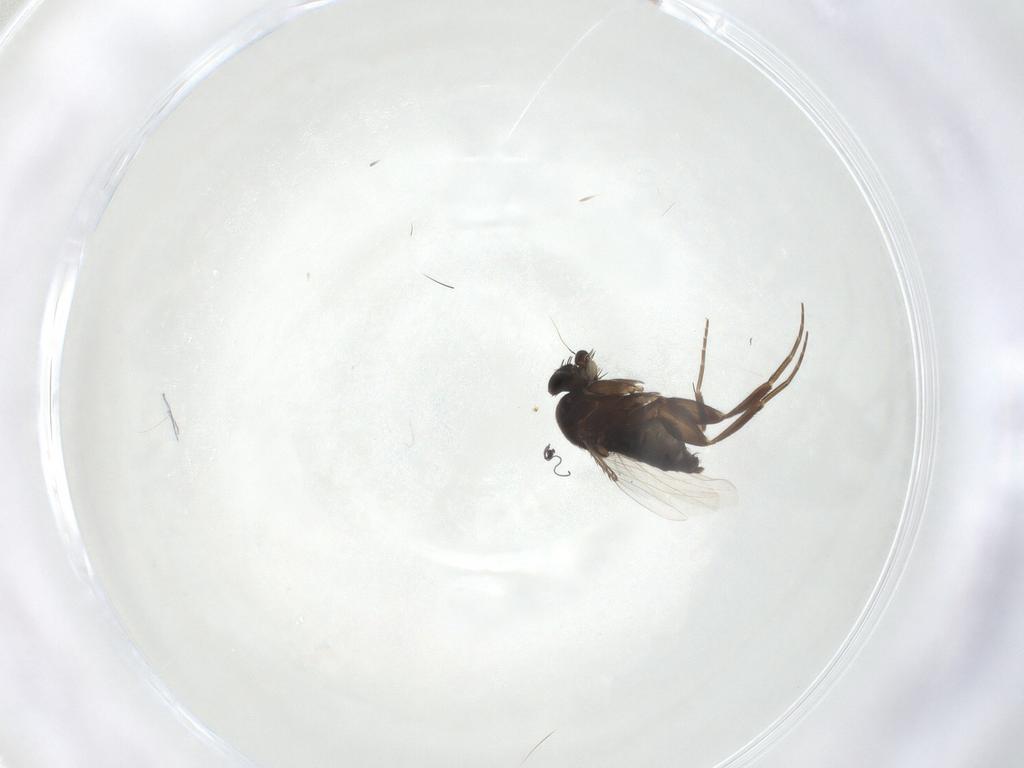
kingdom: Animalia
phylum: Arthropoda
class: Insecta
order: Diptera
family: Phoridae
